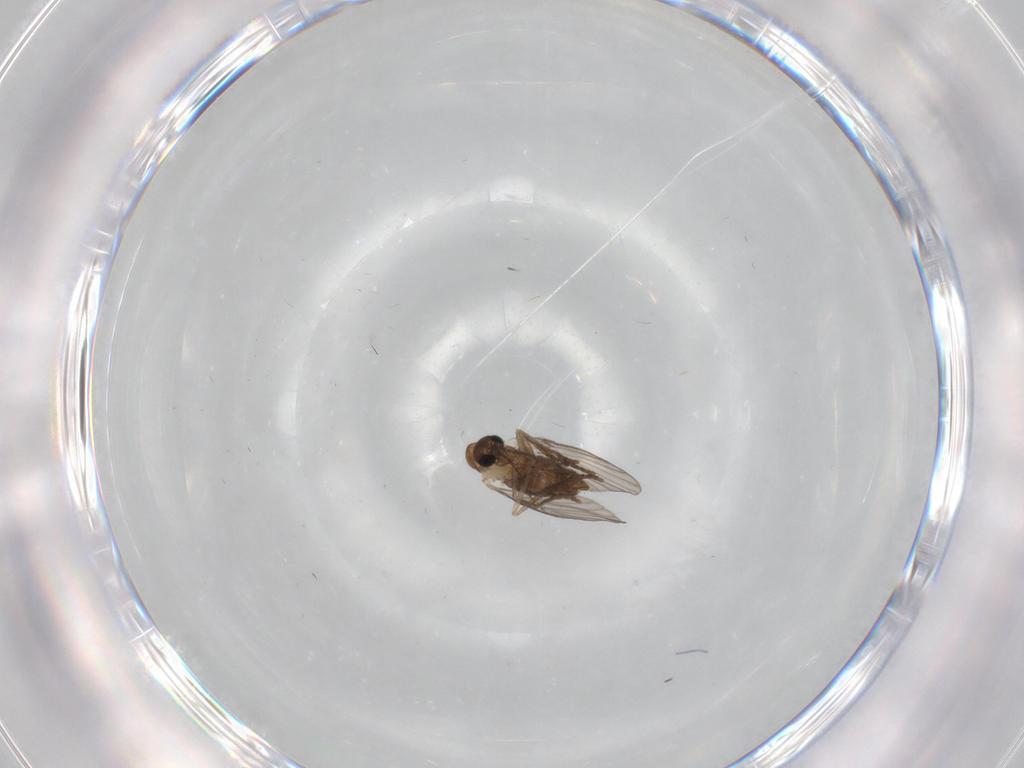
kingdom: Animalia
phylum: Arthropoda
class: Insecta
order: Diptera
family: Psychodidae
